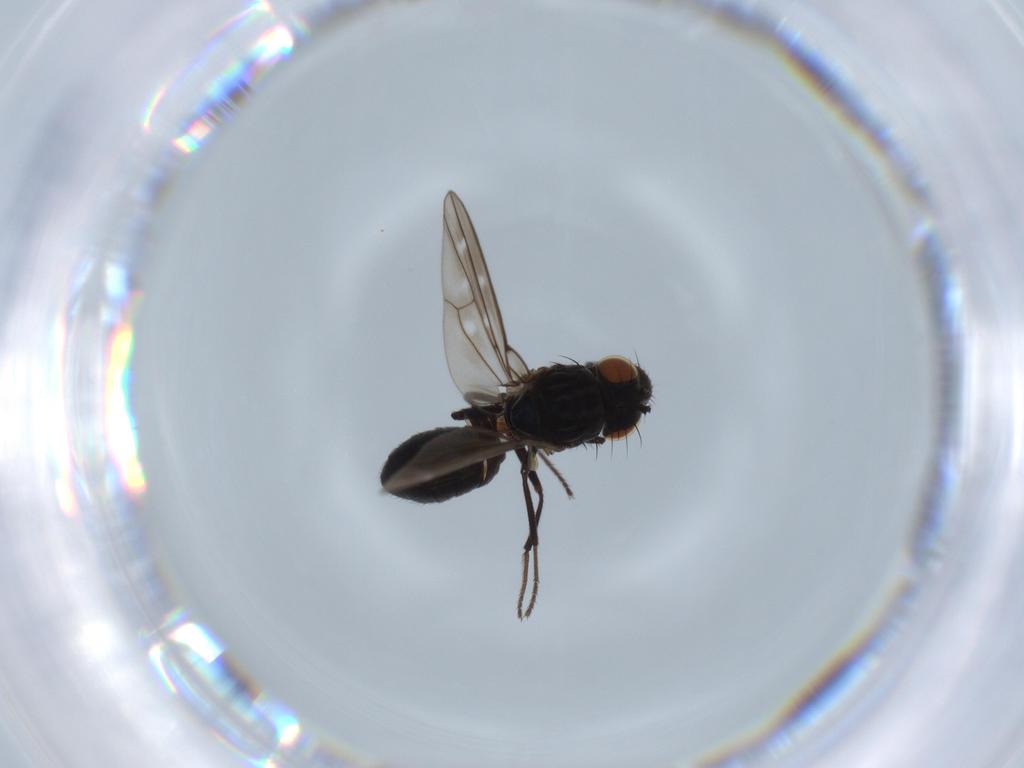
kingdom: Animalia
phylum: Arthropoda
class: Insecta
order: Diptera
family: Ephydridae
